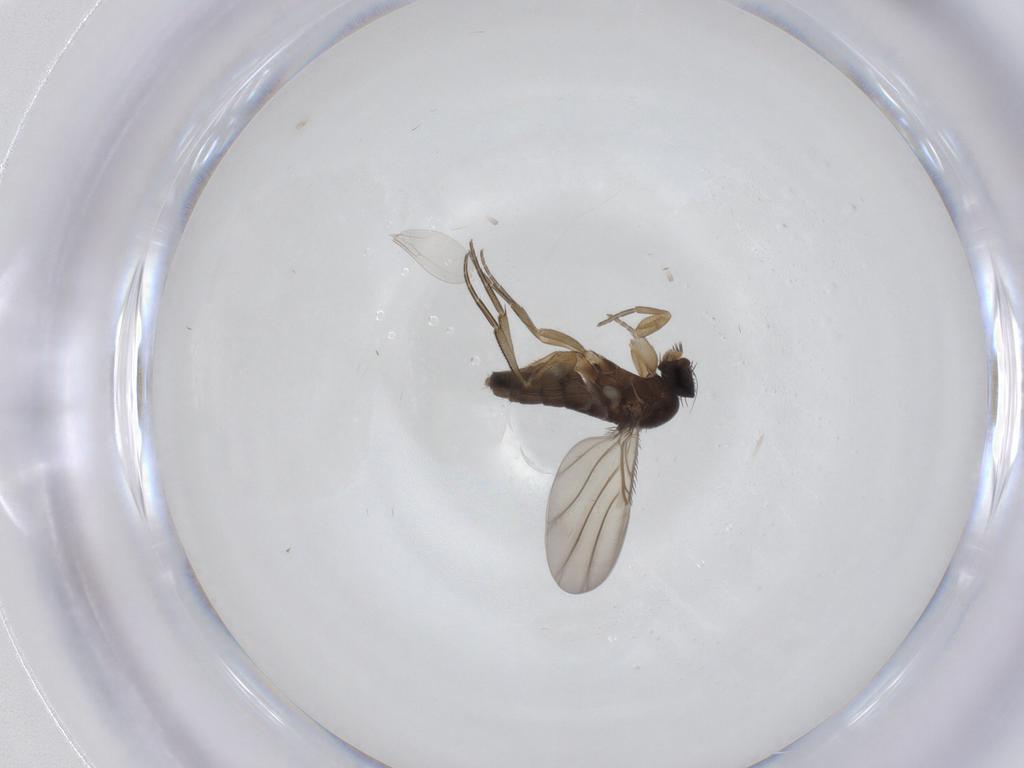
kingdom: Animalia
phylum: Arthropoda
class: Insecta
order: Diptera
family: Phoridae
